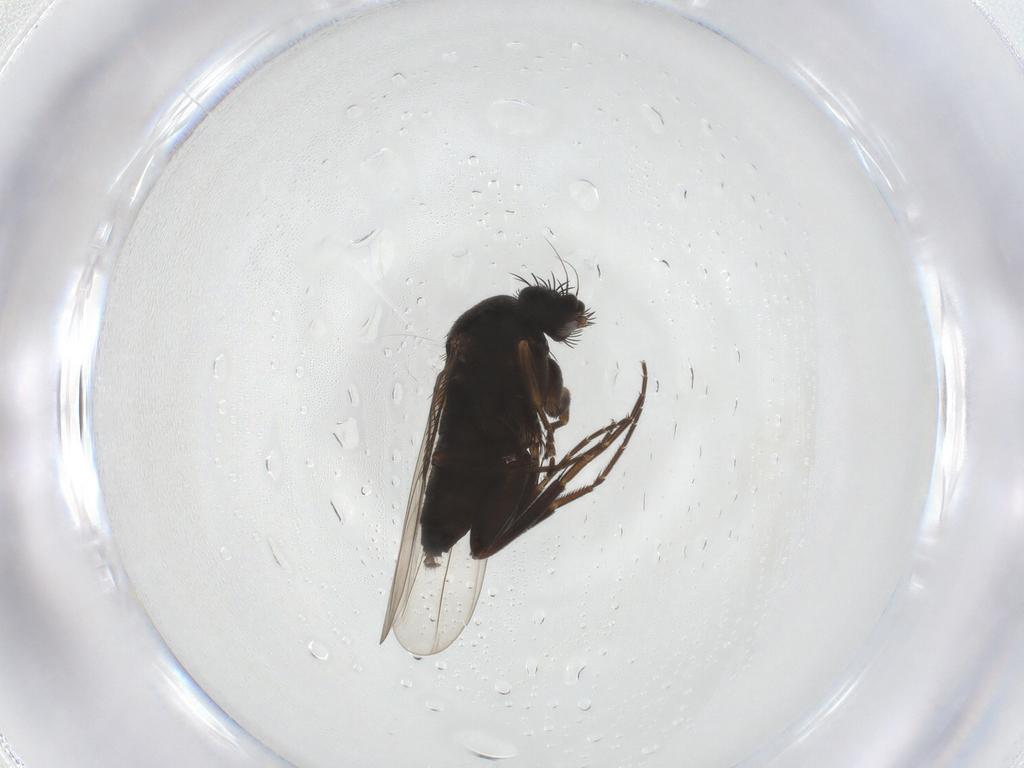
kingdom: Animalia
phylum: Arthropoda
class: Insecta
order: Diptera
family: Phoridae
